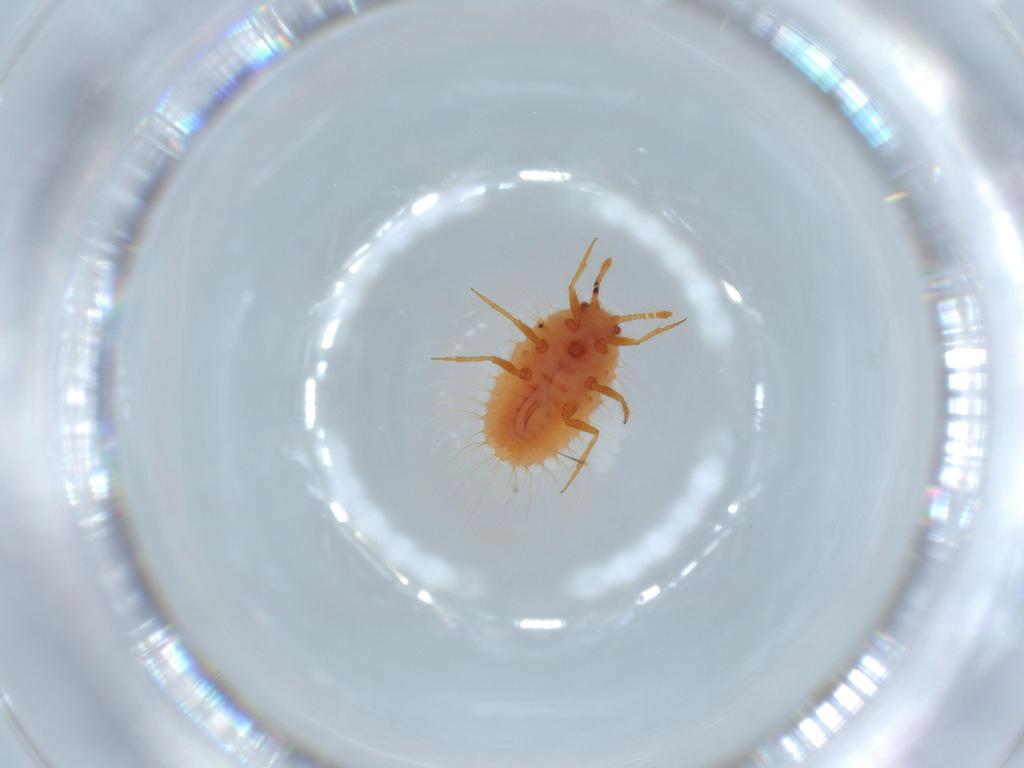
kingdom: Animalia
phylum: Arthropoda
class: Insecta
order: Hemiptera
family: Coccoidea_incertae_sedis
